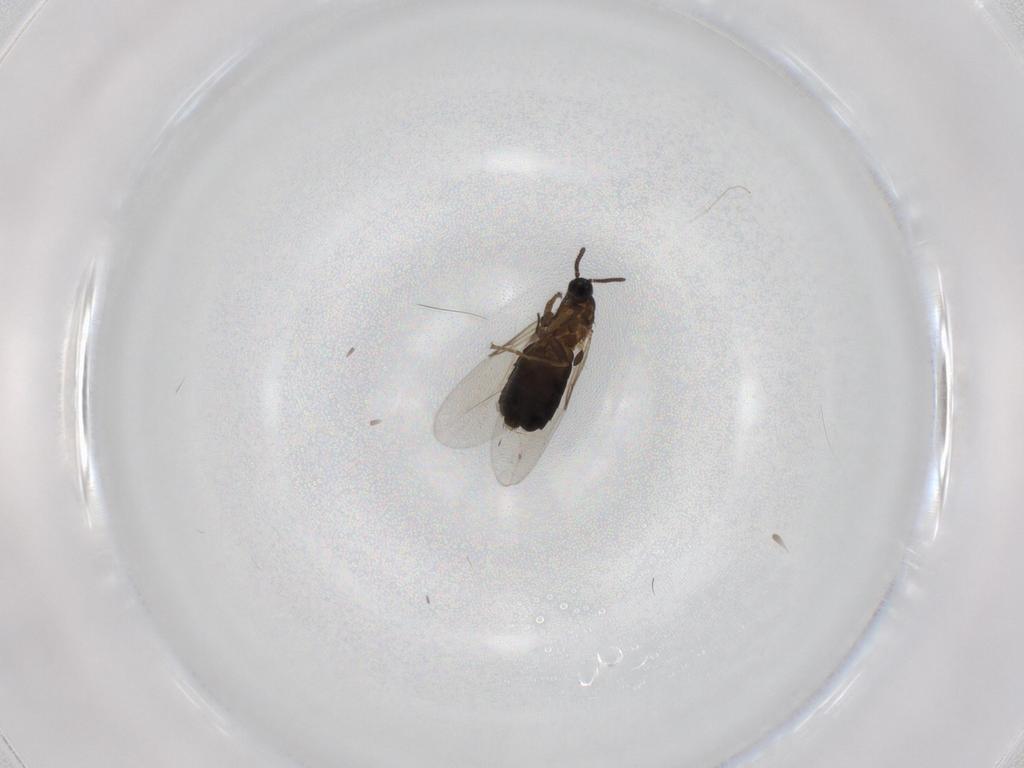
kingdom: Animalia
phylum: Arthropoda
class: Insecta
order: Diptera
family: Scatopsidae
